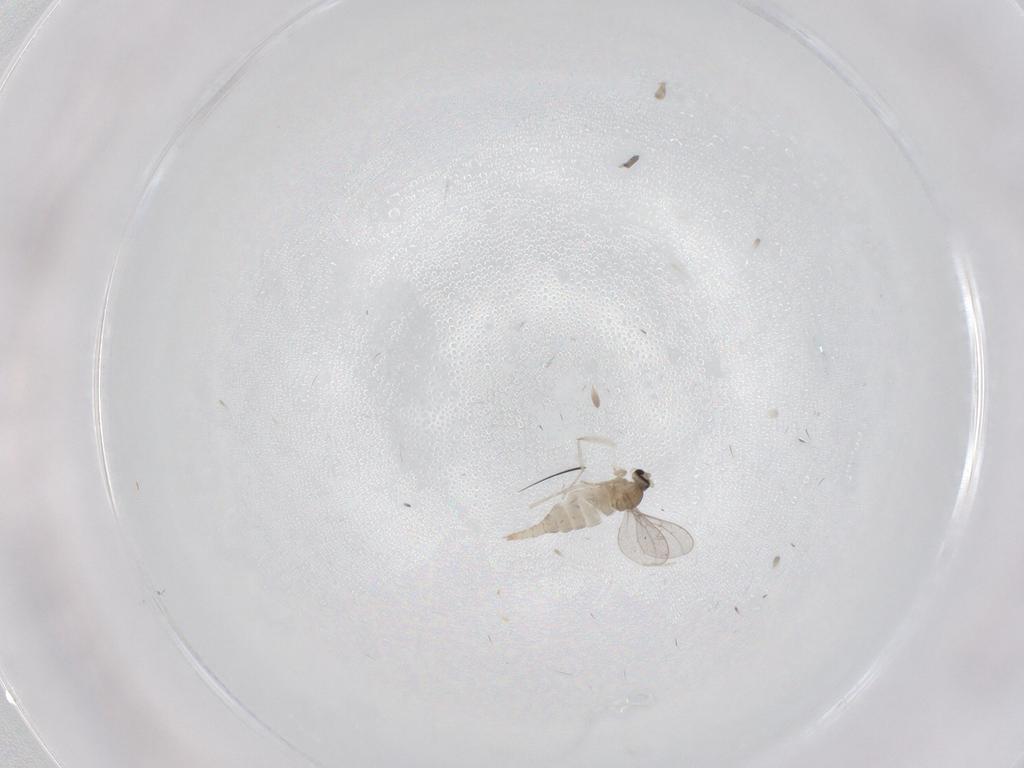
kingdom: Animalia
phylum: Arthropoda
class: Insecta
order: Diptera
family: Cecidomyiidae
